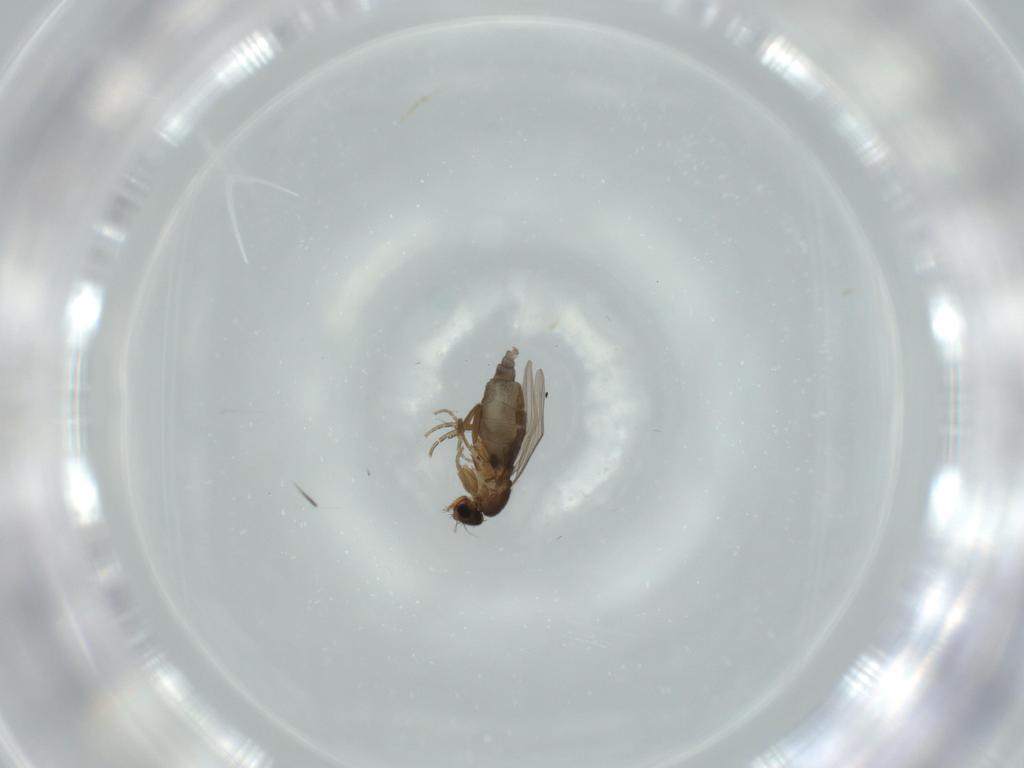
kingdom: Animalia
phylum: Arthropoda
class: Insecta
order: Diptera
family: Phoridae
